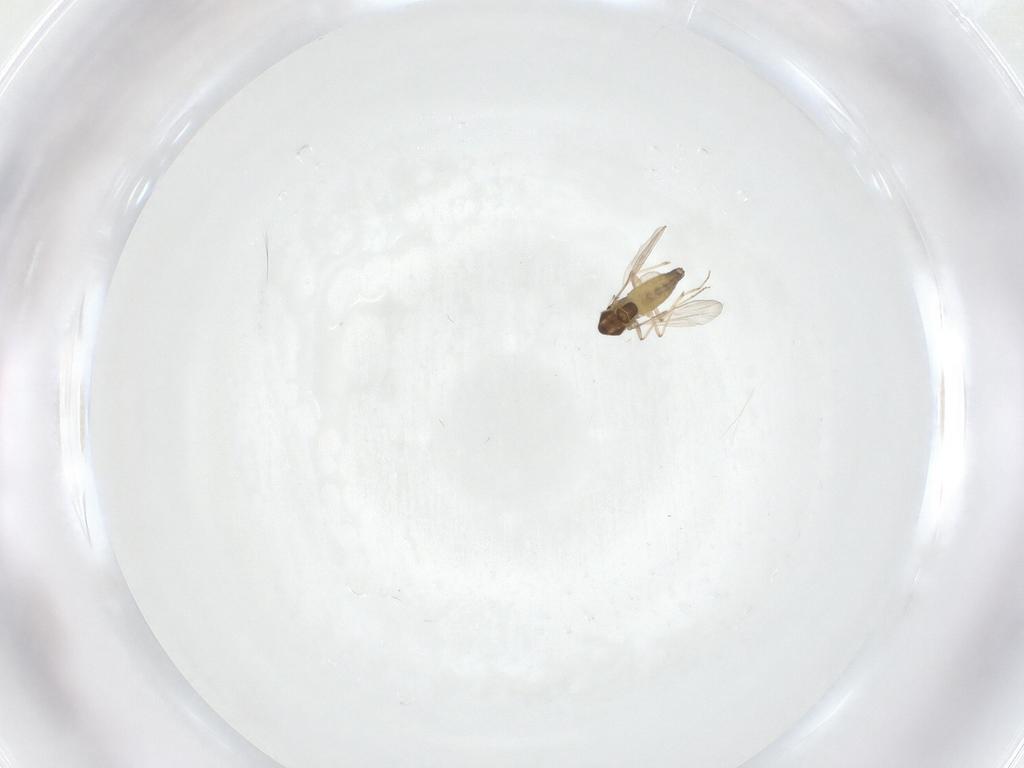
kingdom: Animalia
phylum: Arthropoda
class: Insecta
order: Diptera
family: Chironomidae
